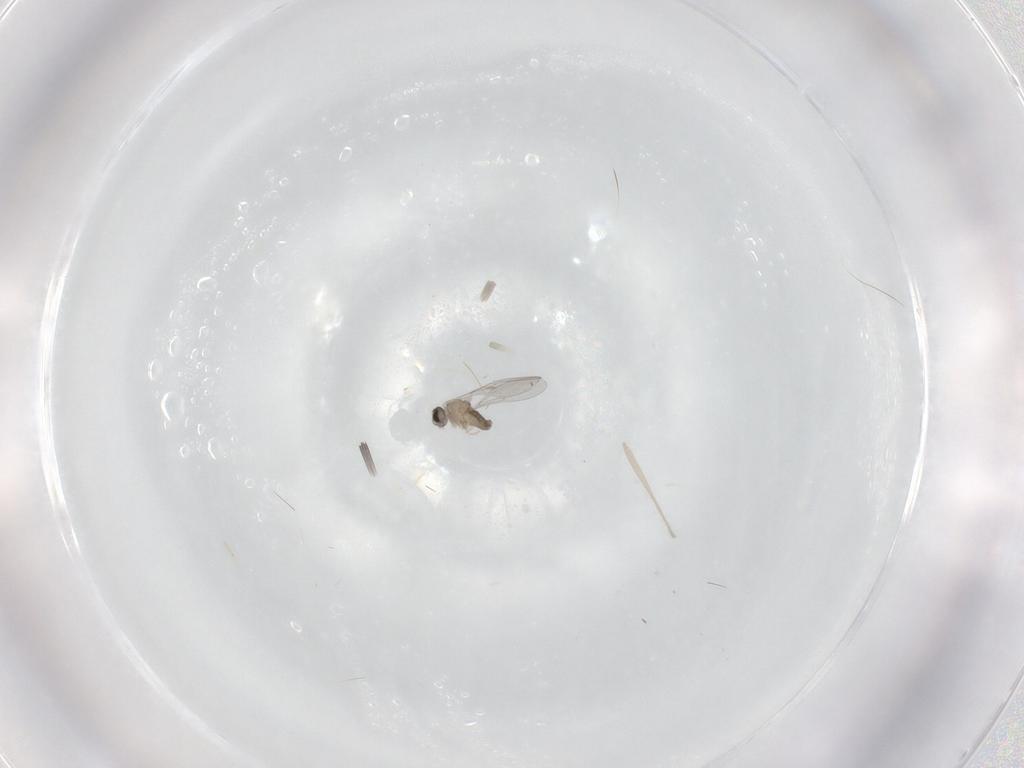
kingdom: Animalia
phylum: Arthropoda
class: Insecta
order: Diptera
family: Cecidomyiidae
